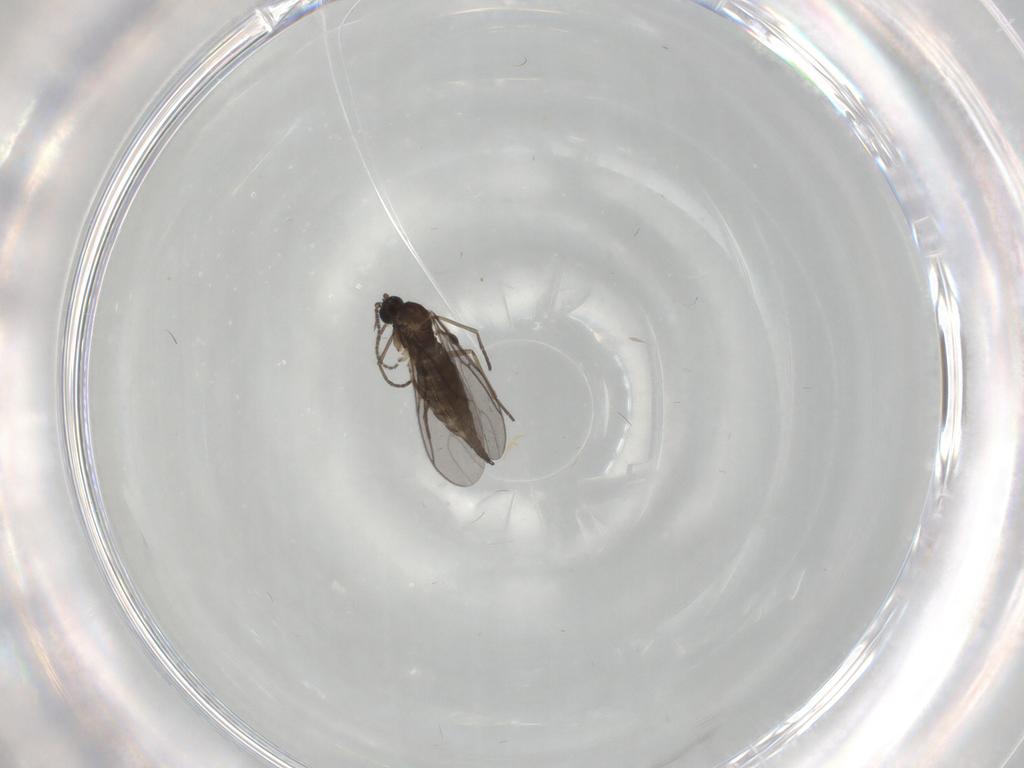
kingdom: Animalia
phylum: Arthropoda
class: Insecta
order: Diptera
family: Sciaridae
